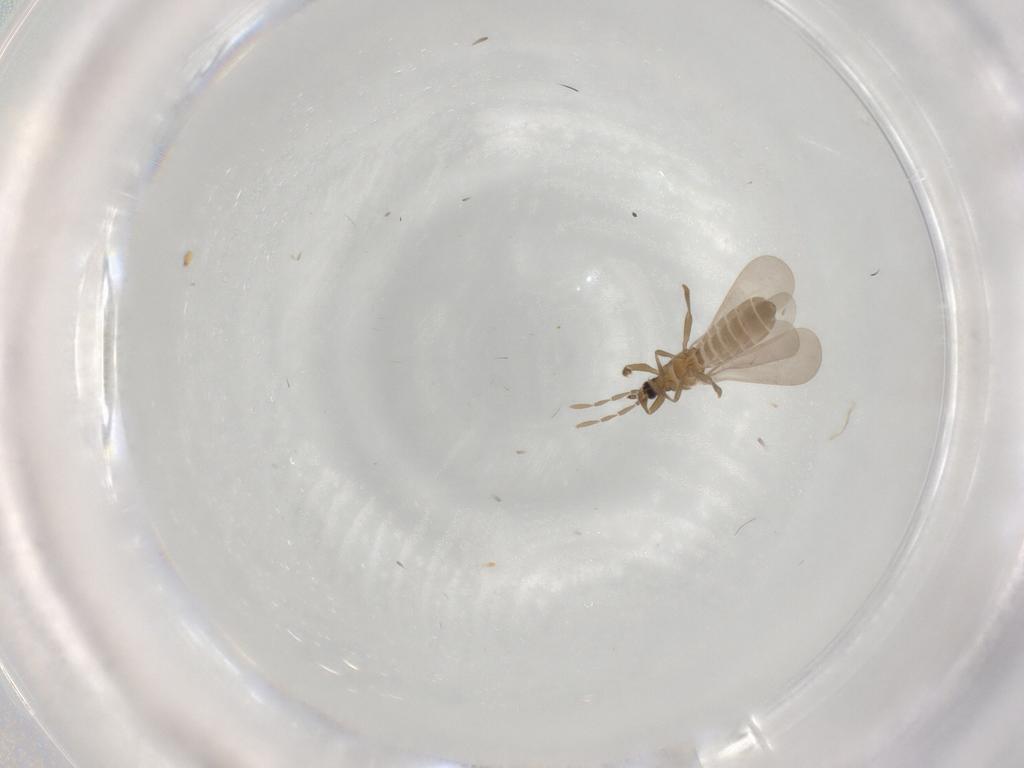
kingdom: Animalia
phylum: Arthropoda
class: Insecta
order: Hemiptera
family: Enicocephalidae
